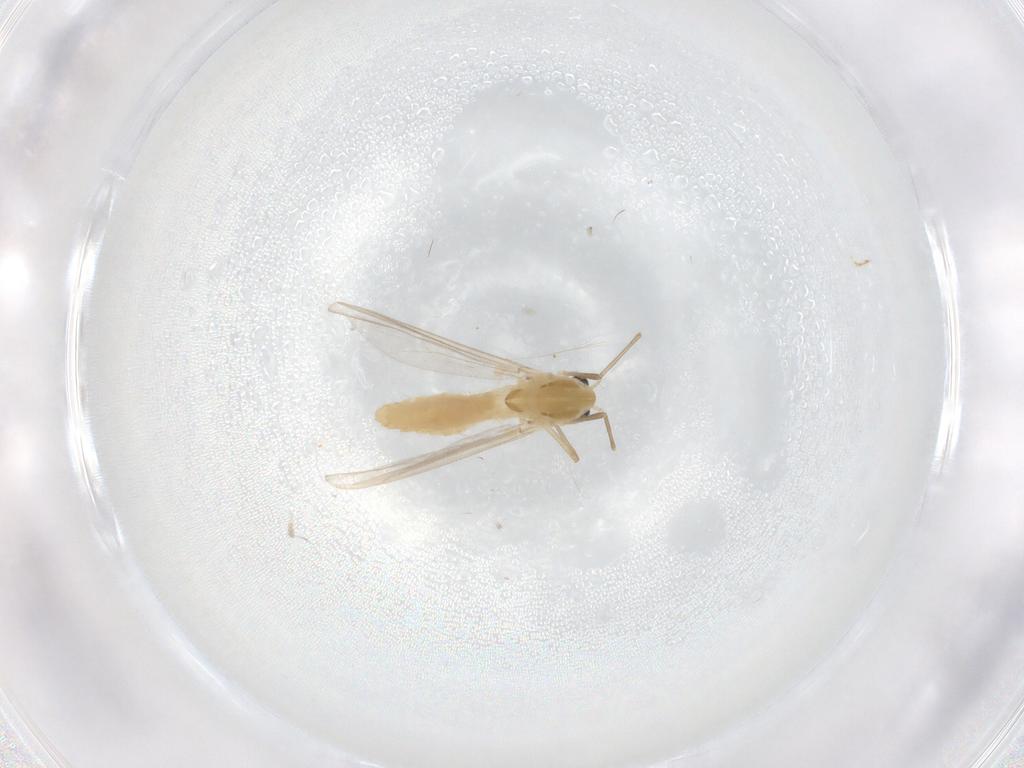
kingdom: Animalia
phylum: Arthropoda
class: Insecta
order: Diptera
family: Chironomidae
